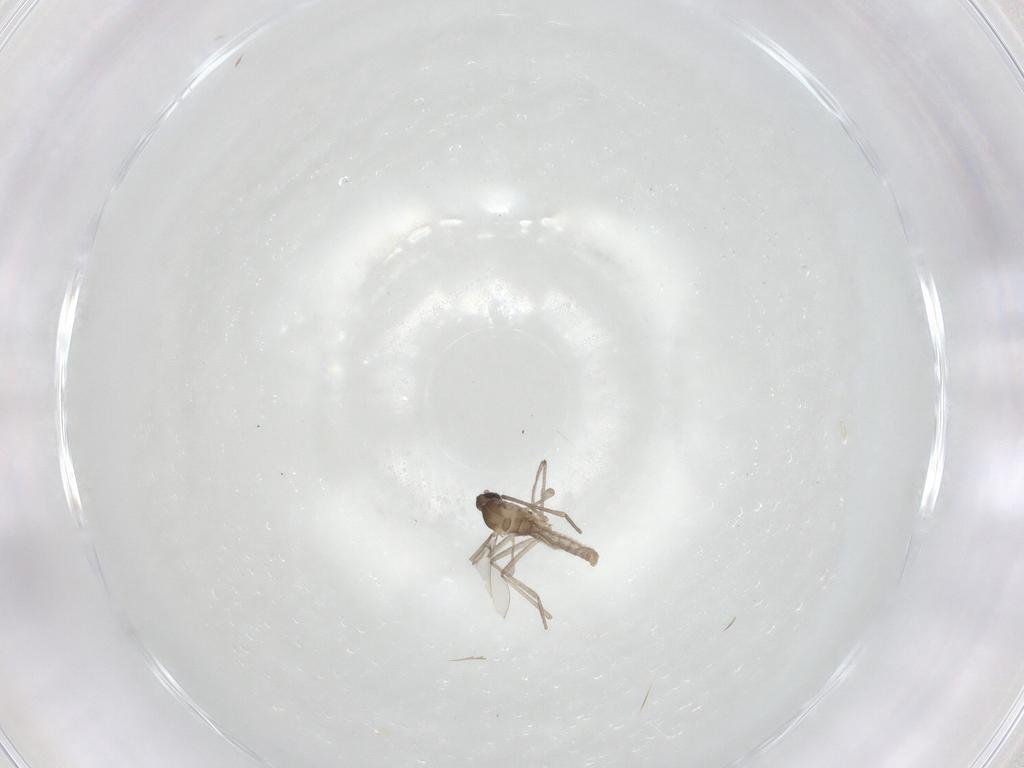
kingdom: Animalia
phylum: Arthropoda
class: Insecta
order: Diptera
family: Cecidomyiidae
